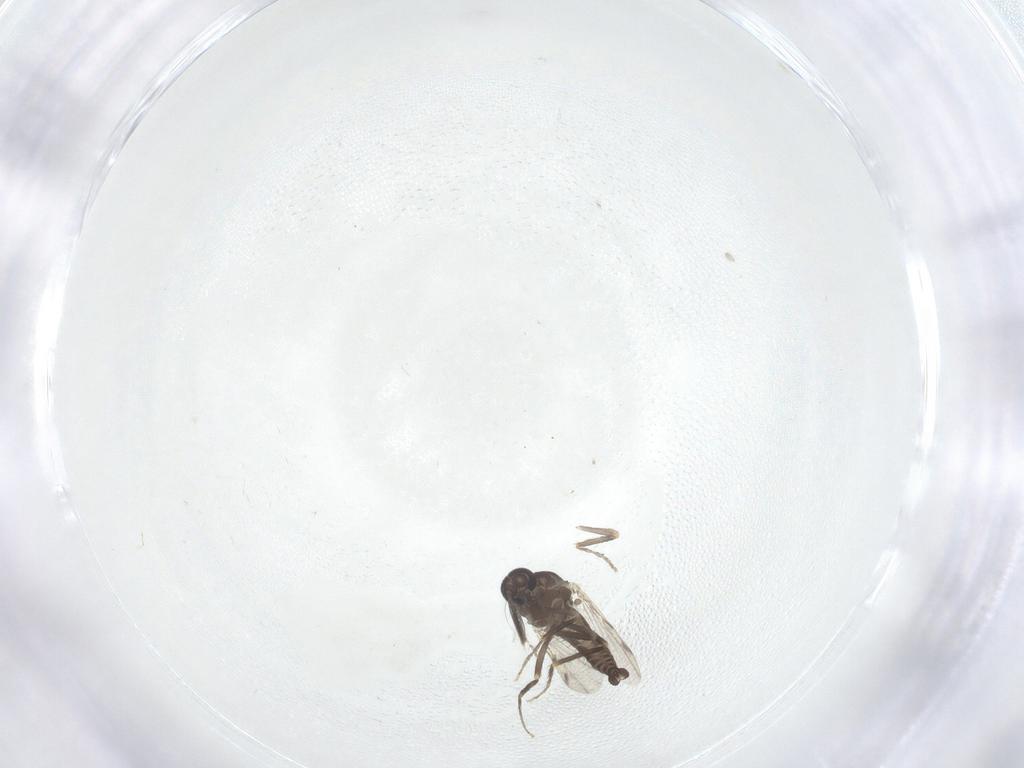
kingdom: Animalia
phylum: Arthropoda
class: Insecta
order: Diptera
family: Ceratopogonidae
